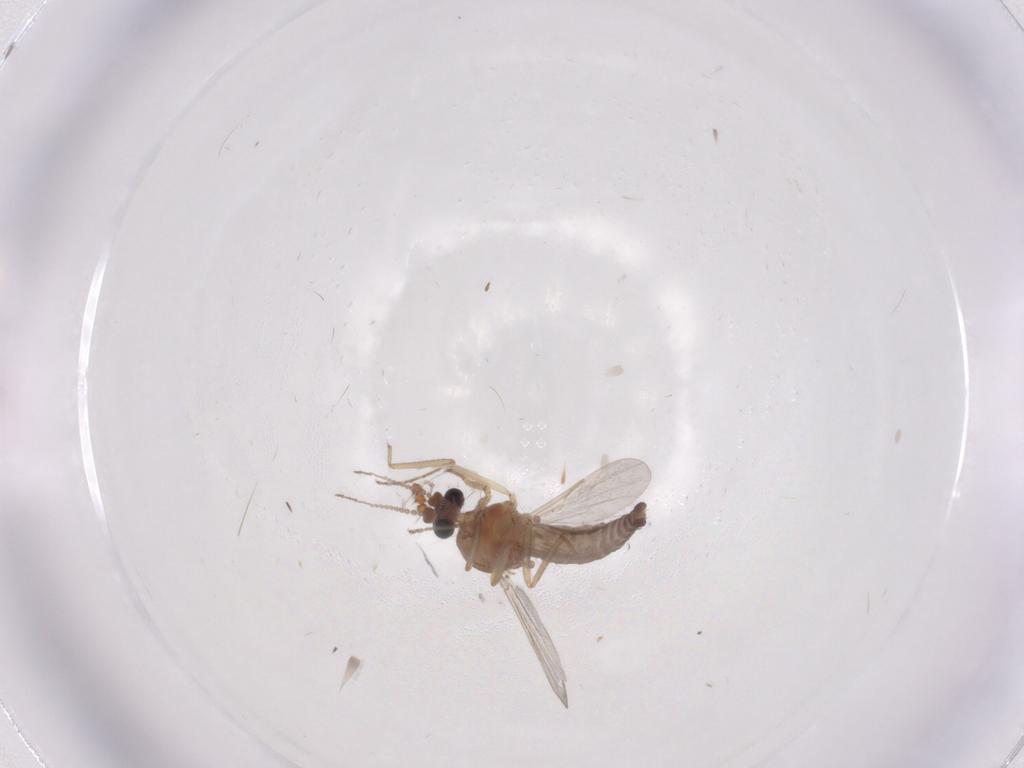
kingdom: Animalia
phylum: Arthropoda
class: Insecta
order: Diptera
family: Ceratopogonidae
